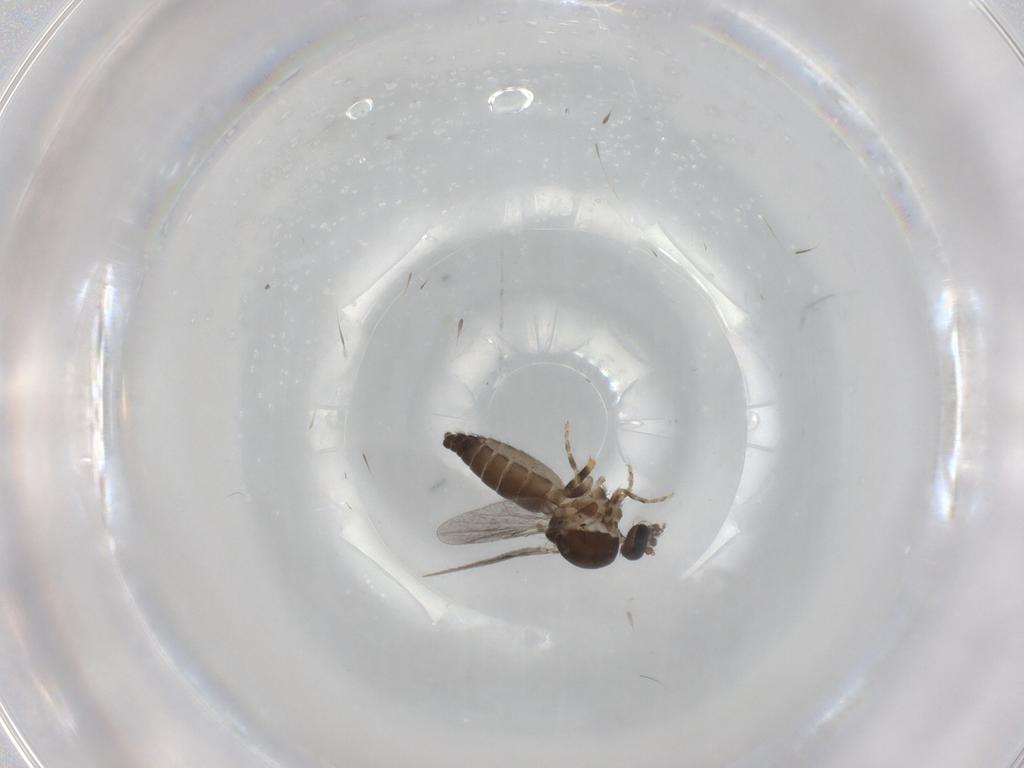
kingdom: Animalia
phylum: Arthropoda
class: Insecta
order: Diptera
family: Ceratopogonidae
